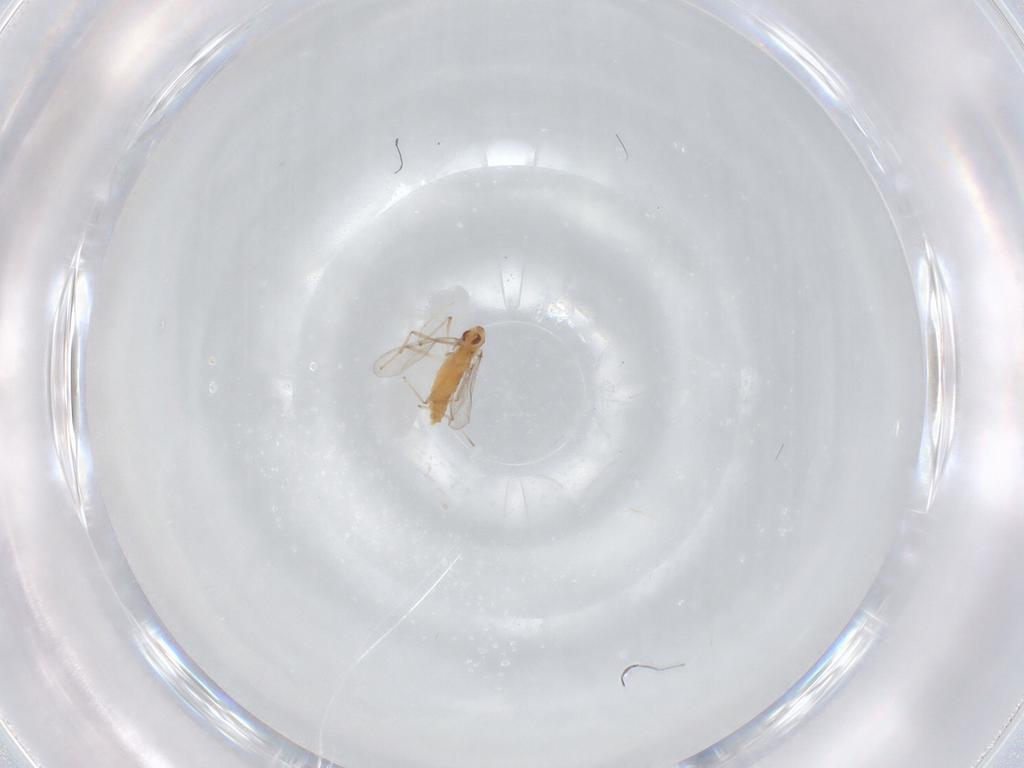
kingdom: Animalia
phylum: Arthropoda
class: Insecta
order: Diptera
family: Chironomidae
